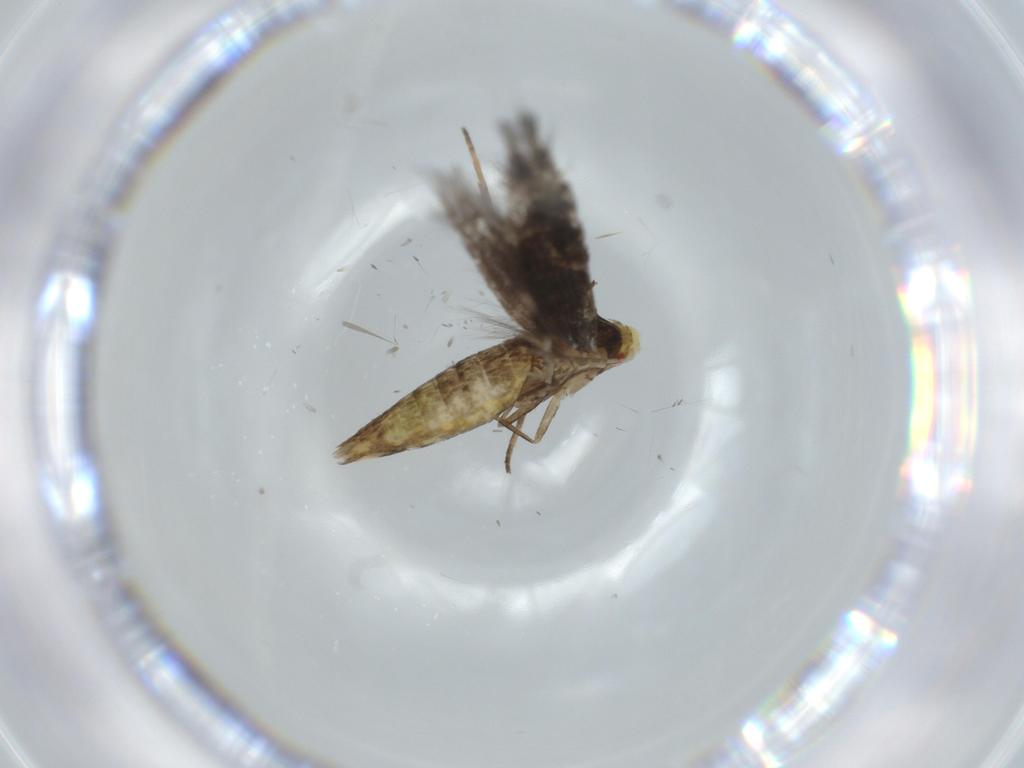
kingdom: Animalia
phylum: Arthropoda
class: Insecta
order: Lepidoptera
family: Cosmopterigidae
